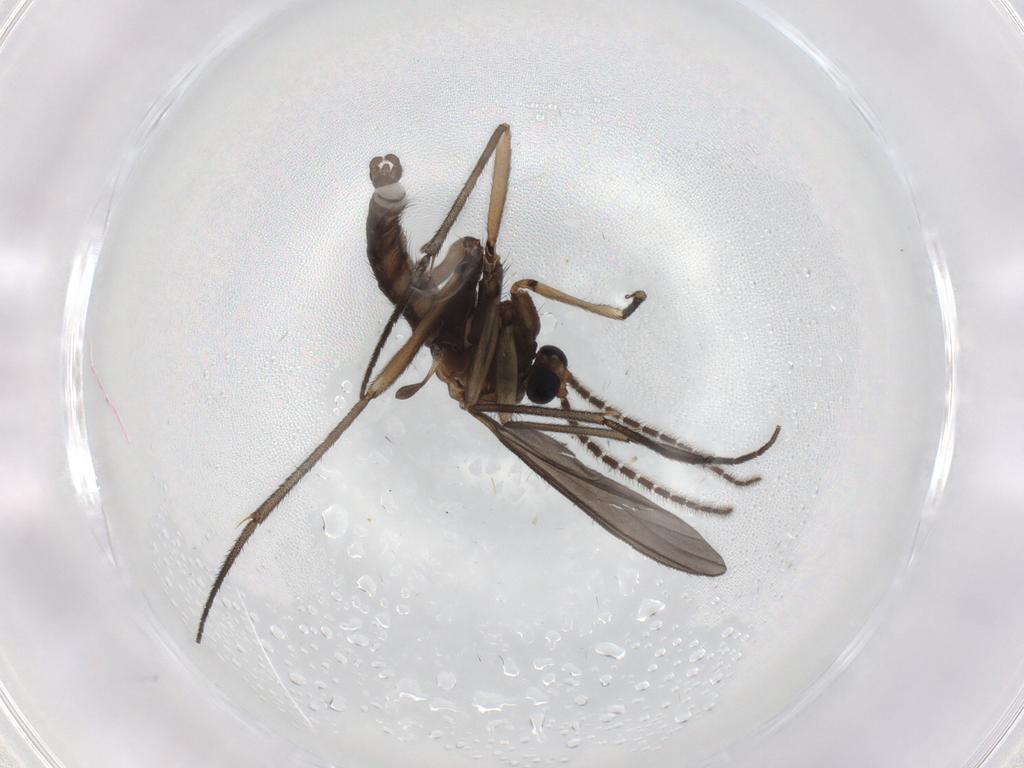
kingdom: Animalia
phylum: Arthropoda
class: Insecta
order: Diptera
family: Sciaridae
